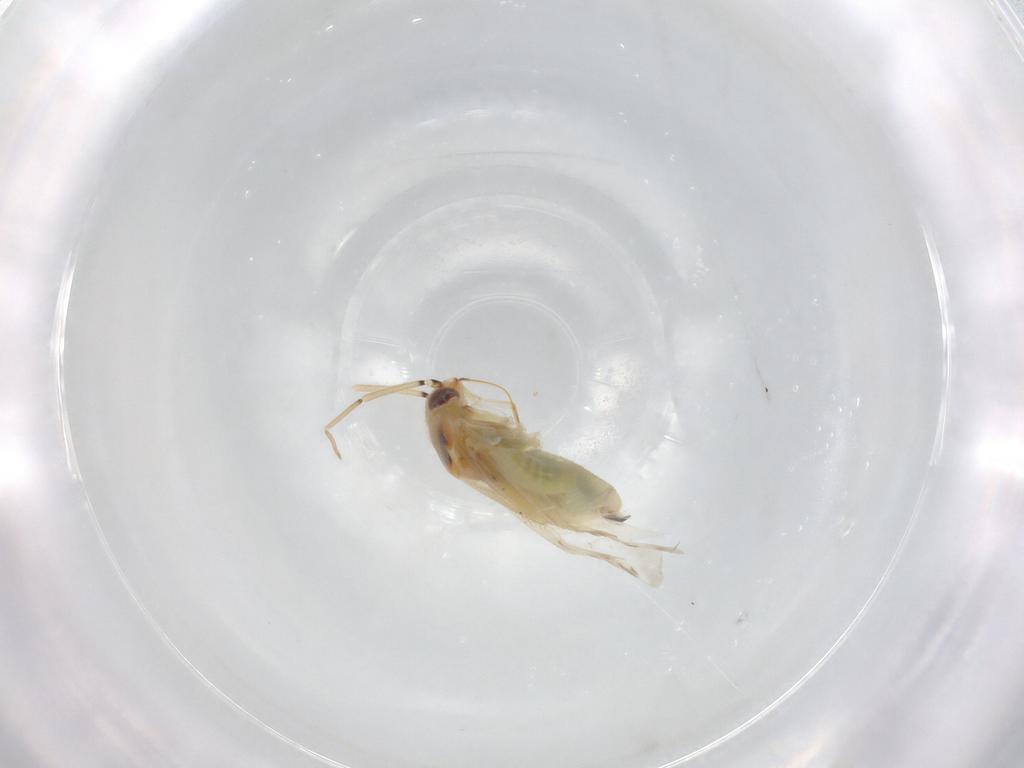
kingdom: Animalia
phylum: Arthropoda
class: Insecta
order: Hemiptera
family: Miridae
